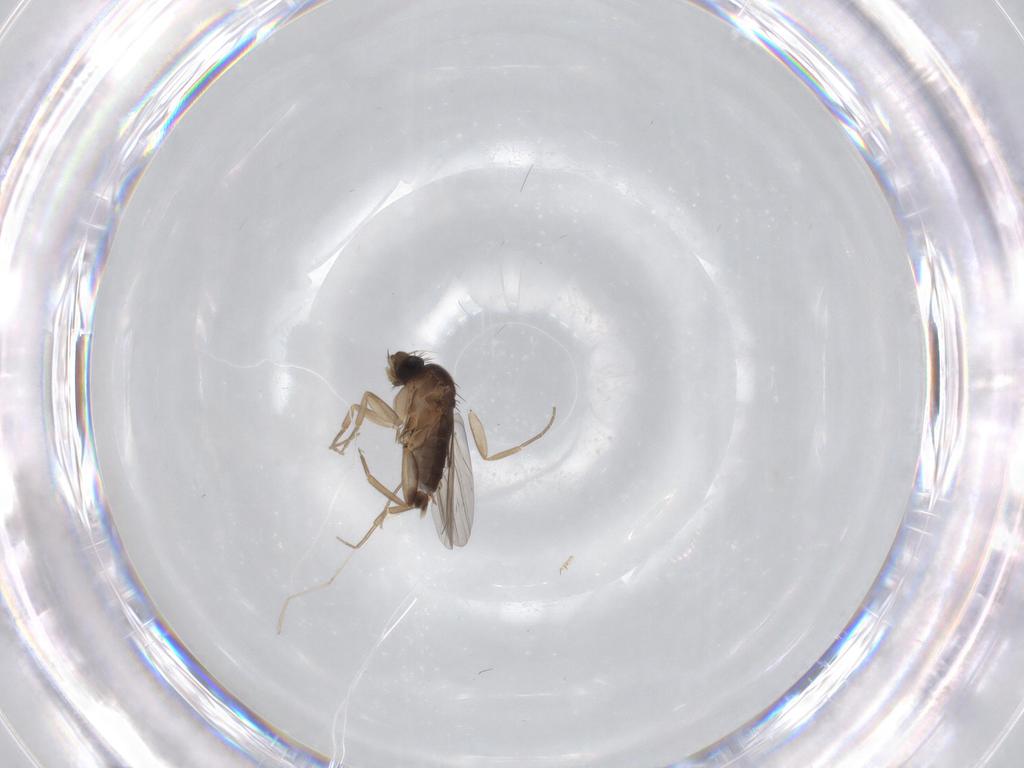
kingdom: Animalia
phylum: Arthropoda
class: Insecta
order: Diptera
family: Phoridae
